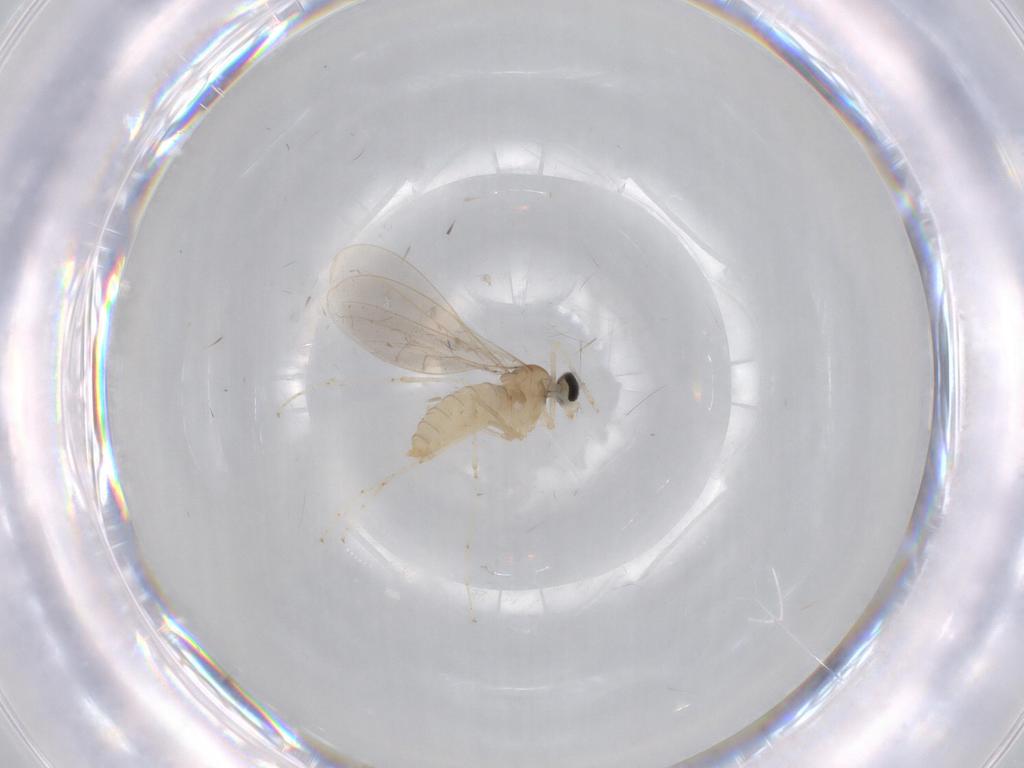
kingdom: Animalia
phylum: Arthropoda
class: Insecta
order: Diptera
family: Cecidomyiidae
